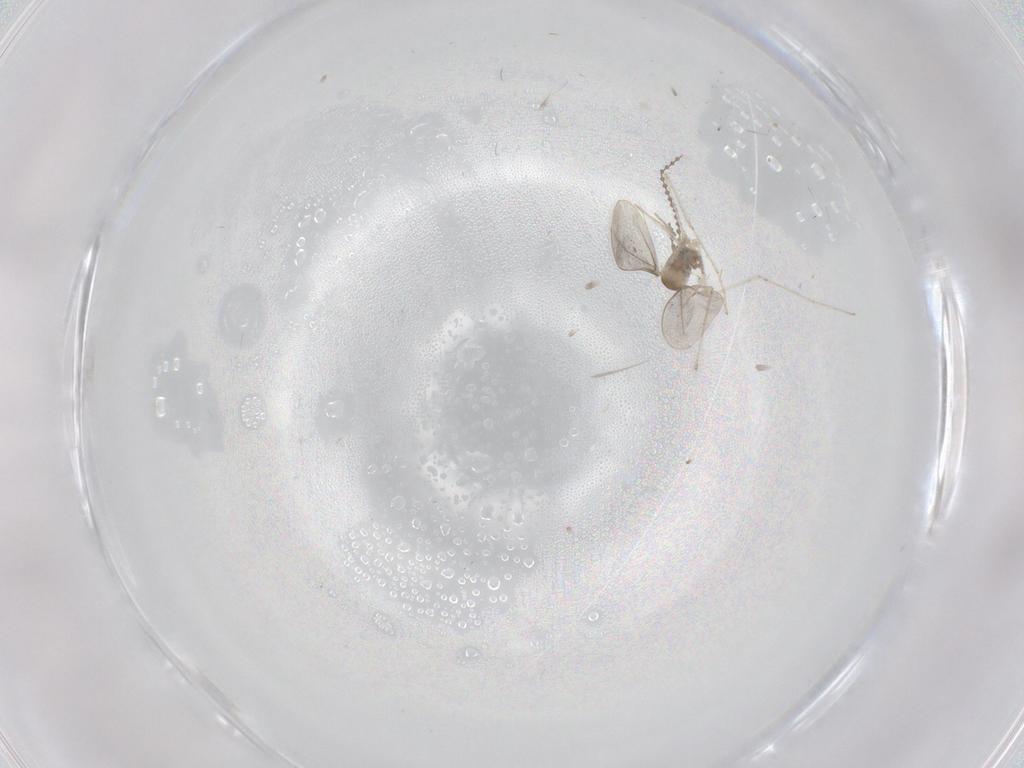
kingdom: Animalia
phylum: Arthropoda
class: Insecta
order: Diptera
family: Cecidomyiidae
